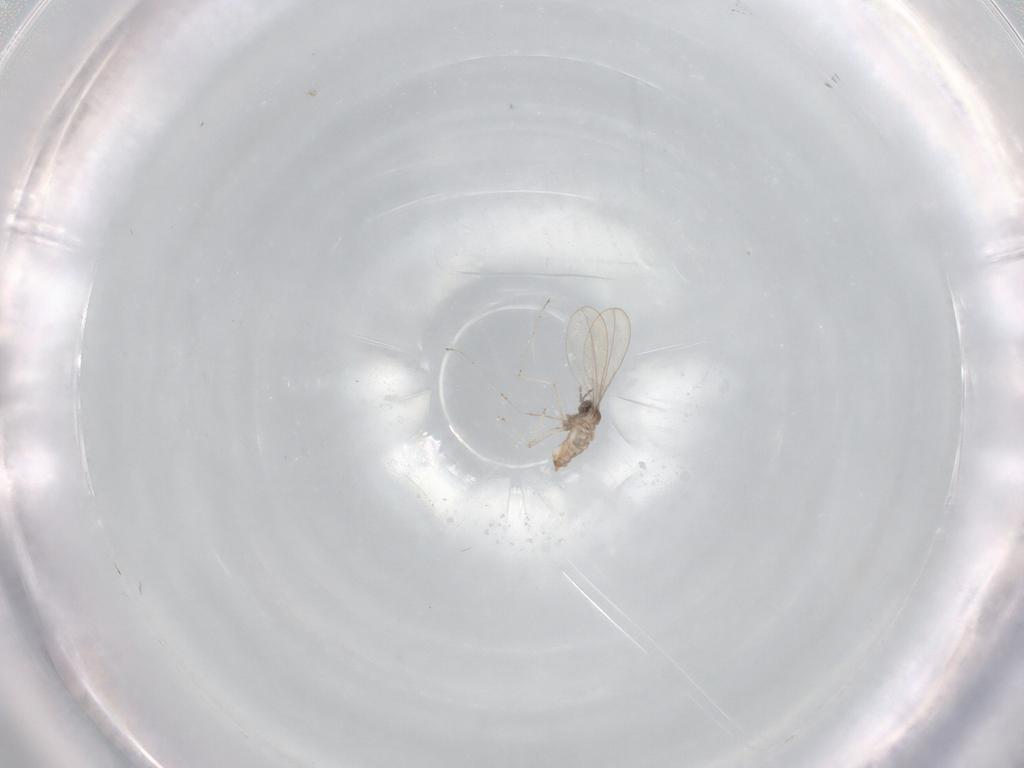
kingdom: Animalia
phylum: Arthropoda
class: Insecta
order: Diptera
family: Cecidomyiidae
